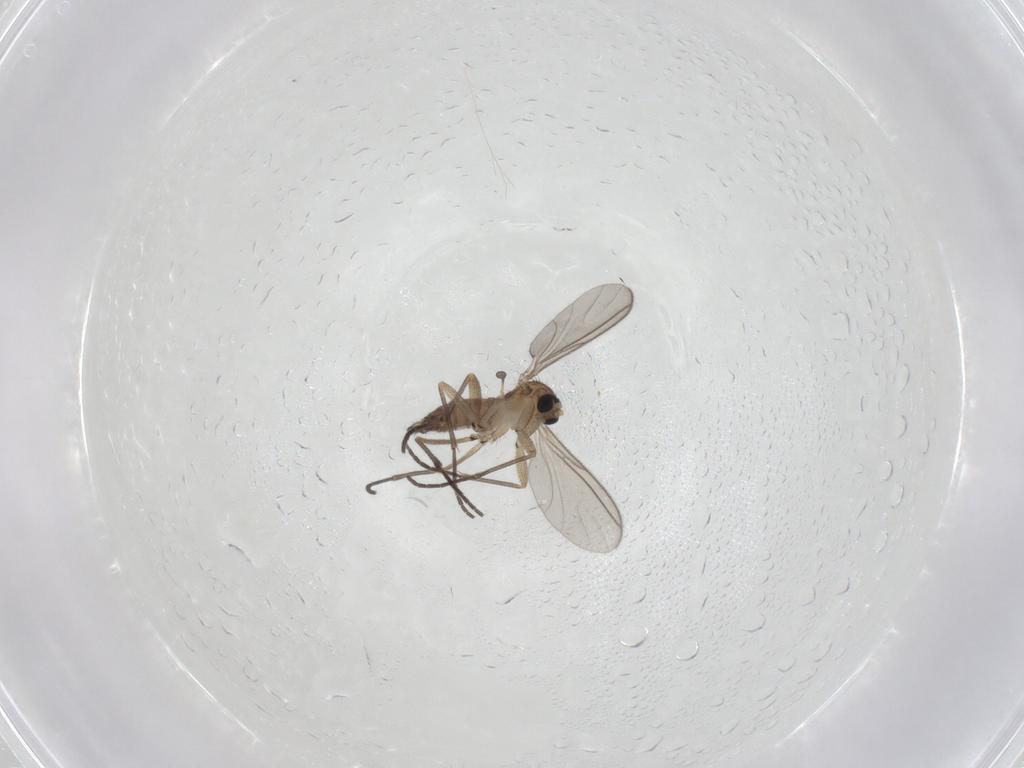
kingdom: Animalia
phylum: Arthropoda
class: Insecta
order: Diptera
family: Sciaridae
